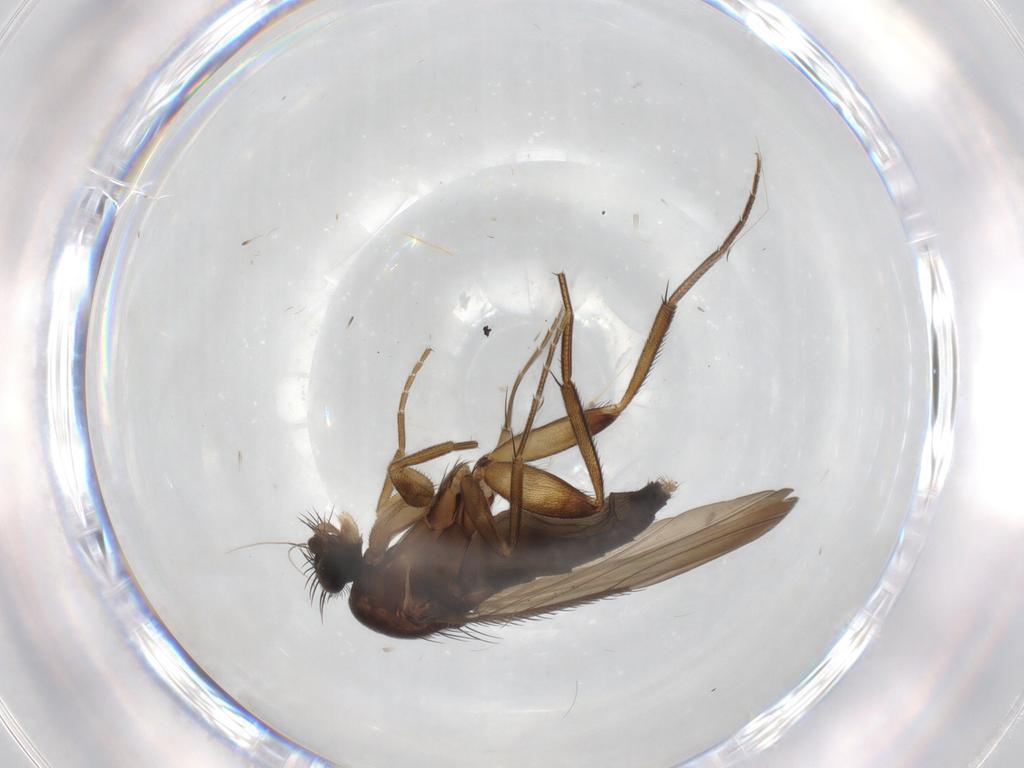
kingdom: Animalia
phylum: Arthropoda
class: Insecta
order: Diptera
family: Phoridae
